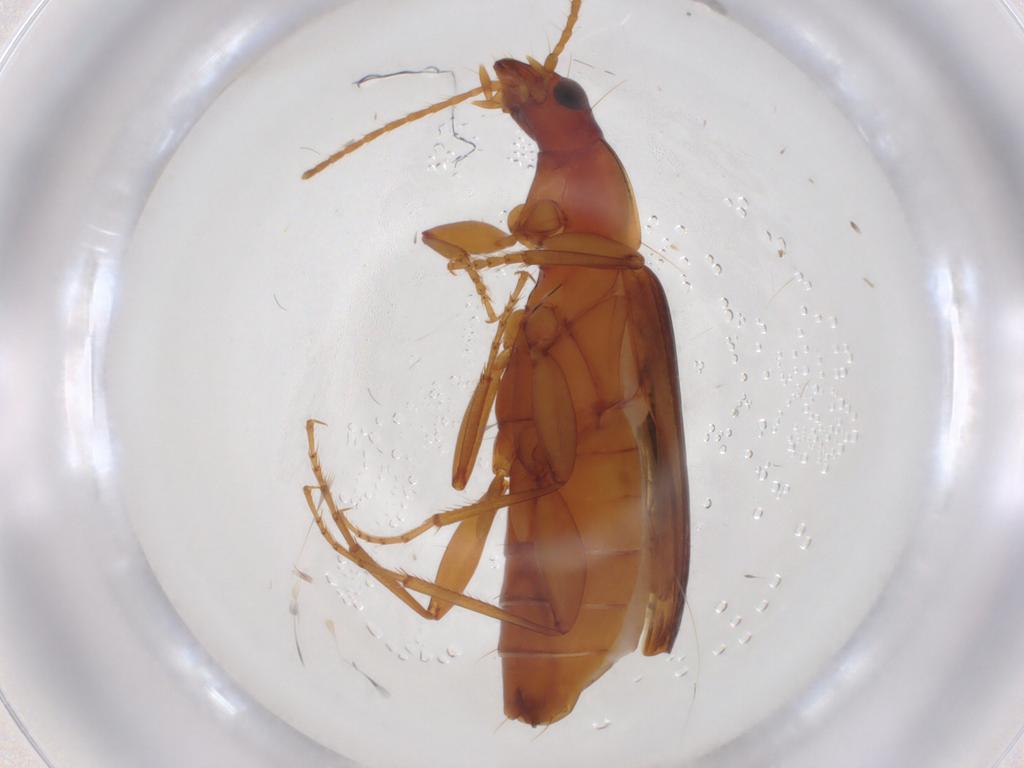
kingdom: Animalia
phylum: Arthropoda
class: Insecta
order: Coleoptera
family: Carabidae
